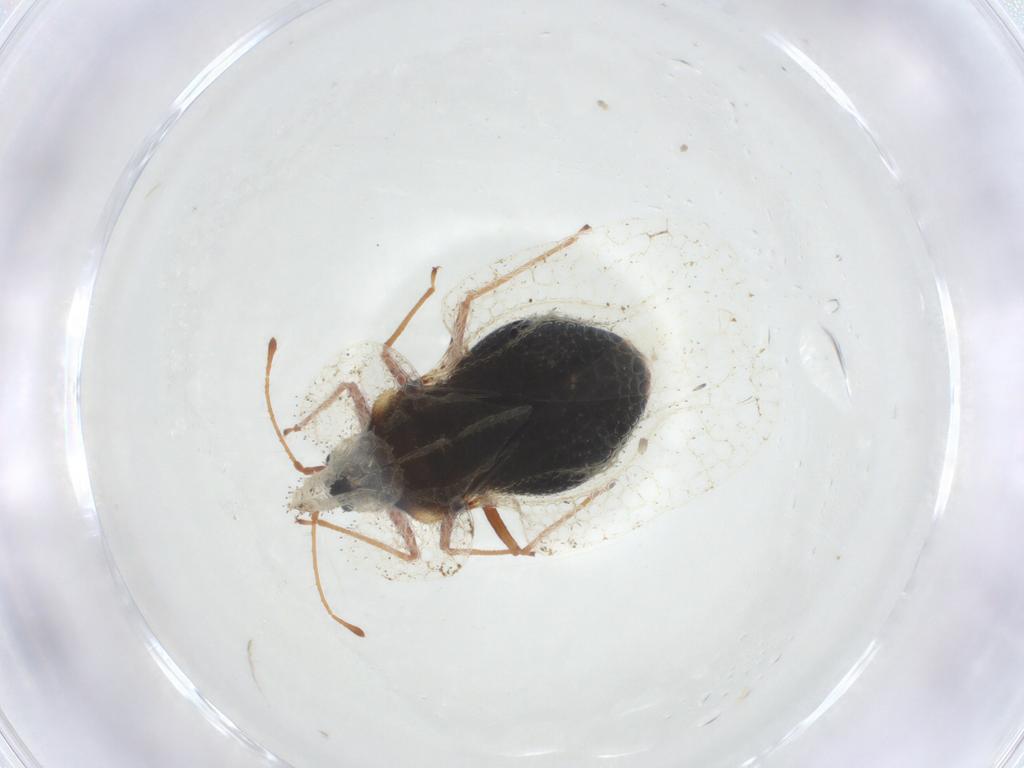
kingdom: Animalia
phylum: Arthropoda
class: Insecta
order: Hemiptera
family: Tingidae
